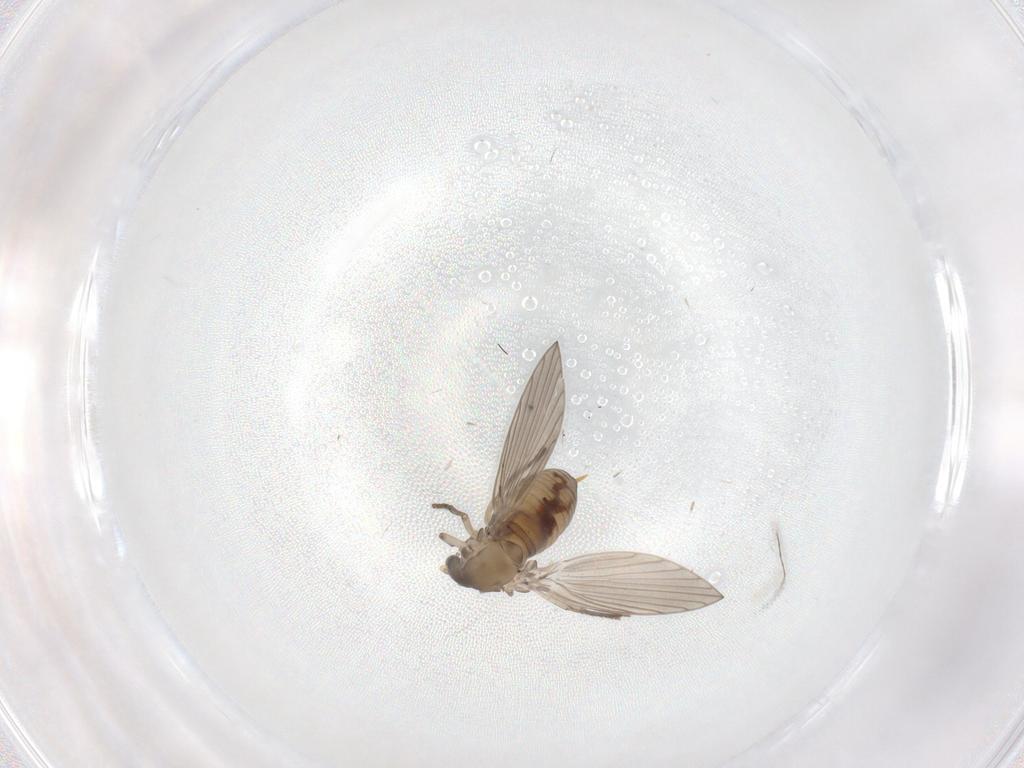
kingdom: Animalia
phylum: Arthropoda
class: Insecta
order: Diptera
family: Psychodidae
